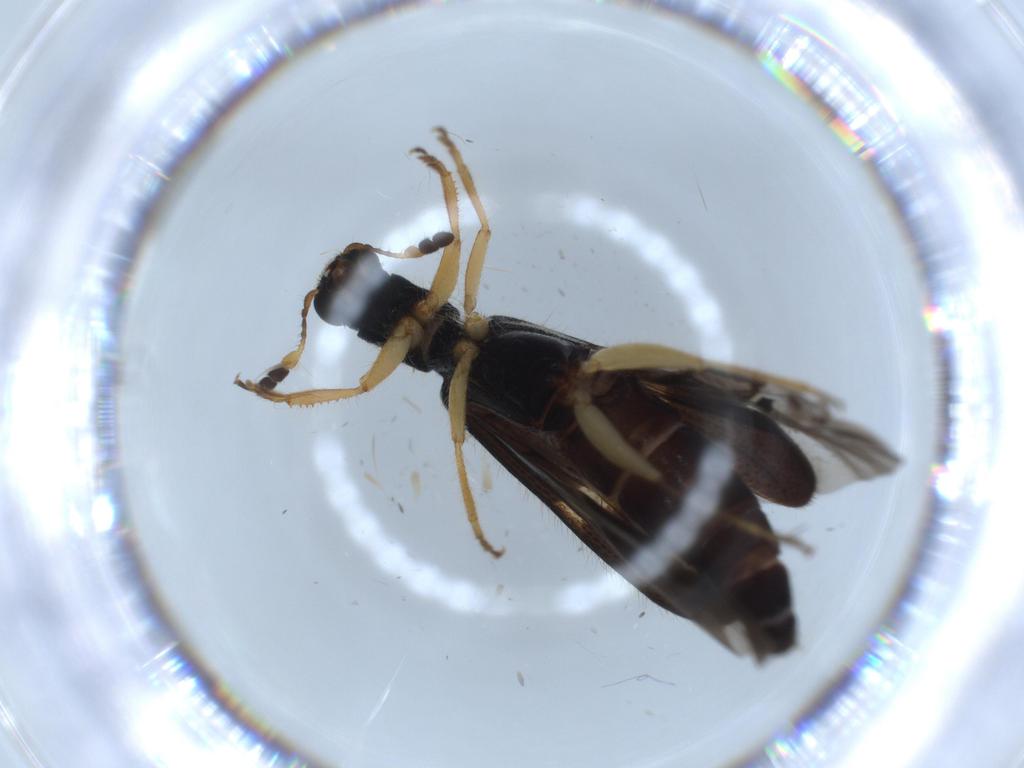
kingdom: Animalia
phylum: Arthropoda
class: Insecta
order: Coleoptera
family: Cleridae
